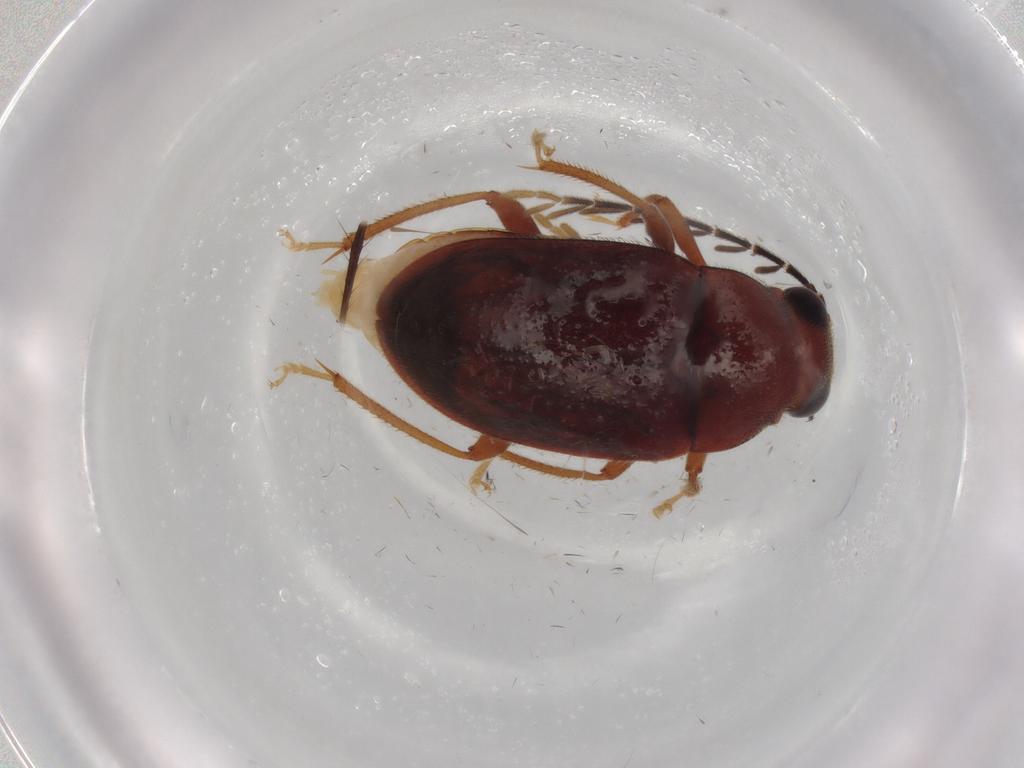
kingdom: Animalia
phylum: Arthropoda
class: Insecta
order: Coleoptera
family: Ptilodactylidae
